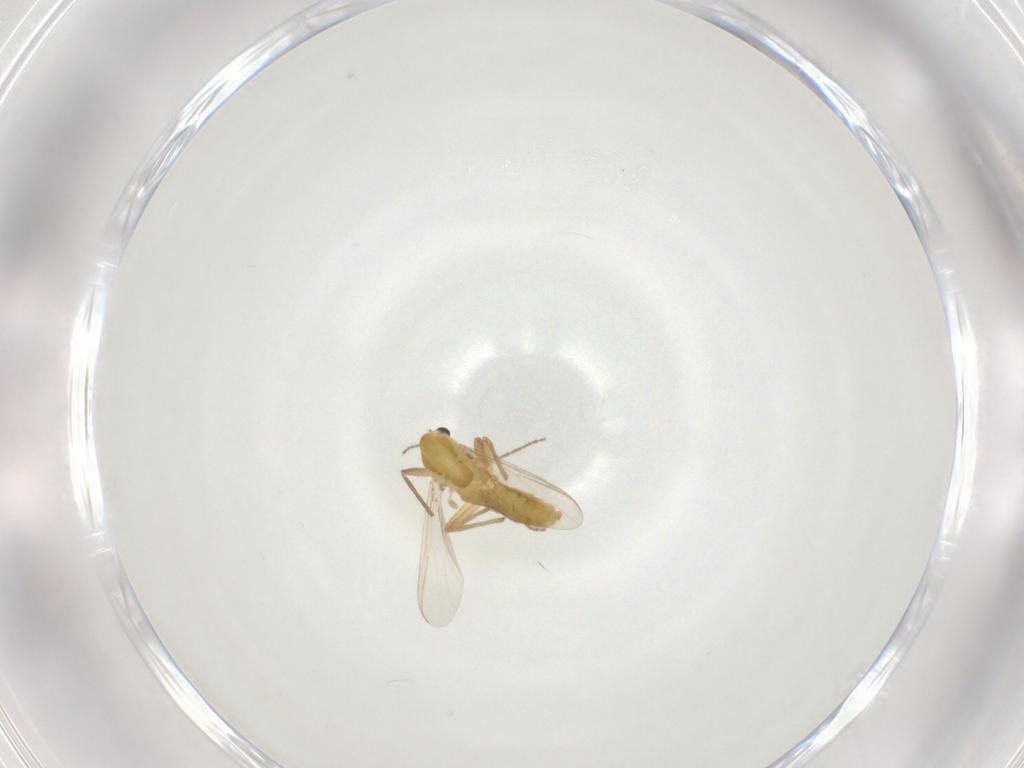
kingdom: Animalia
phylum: Arthropoda
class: Insecta
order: Diptera
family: Chironomidae
